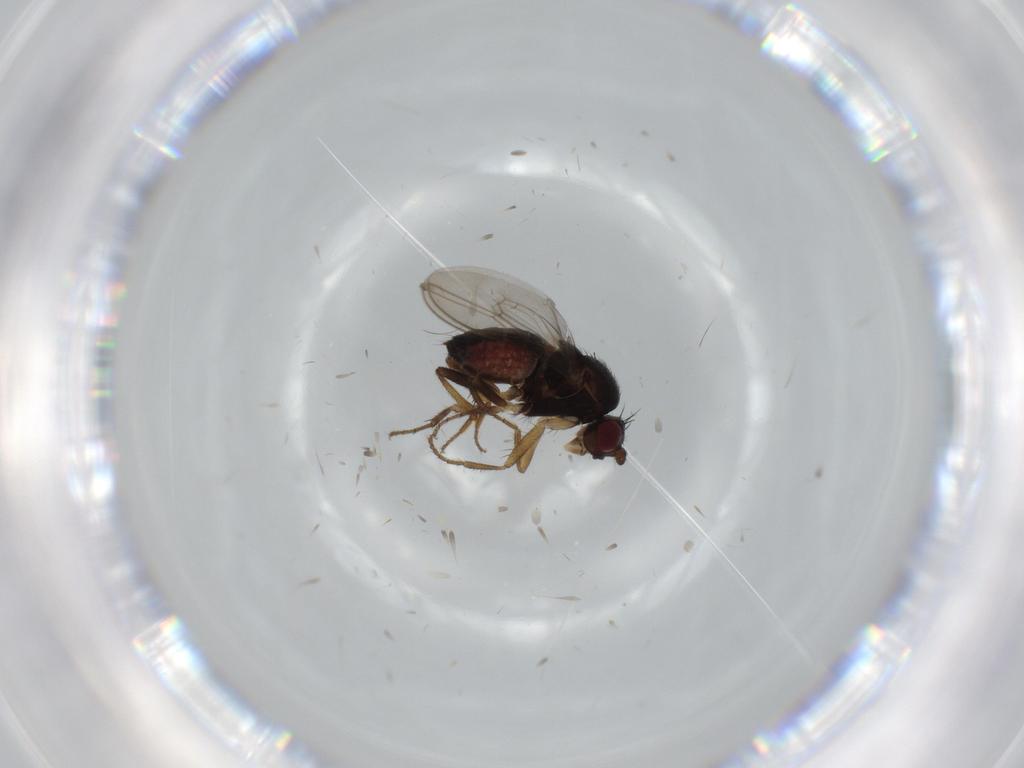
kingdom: Animalia
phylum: Arthropoda
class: Insecta
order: Diptera
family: Sphaeroceridae
